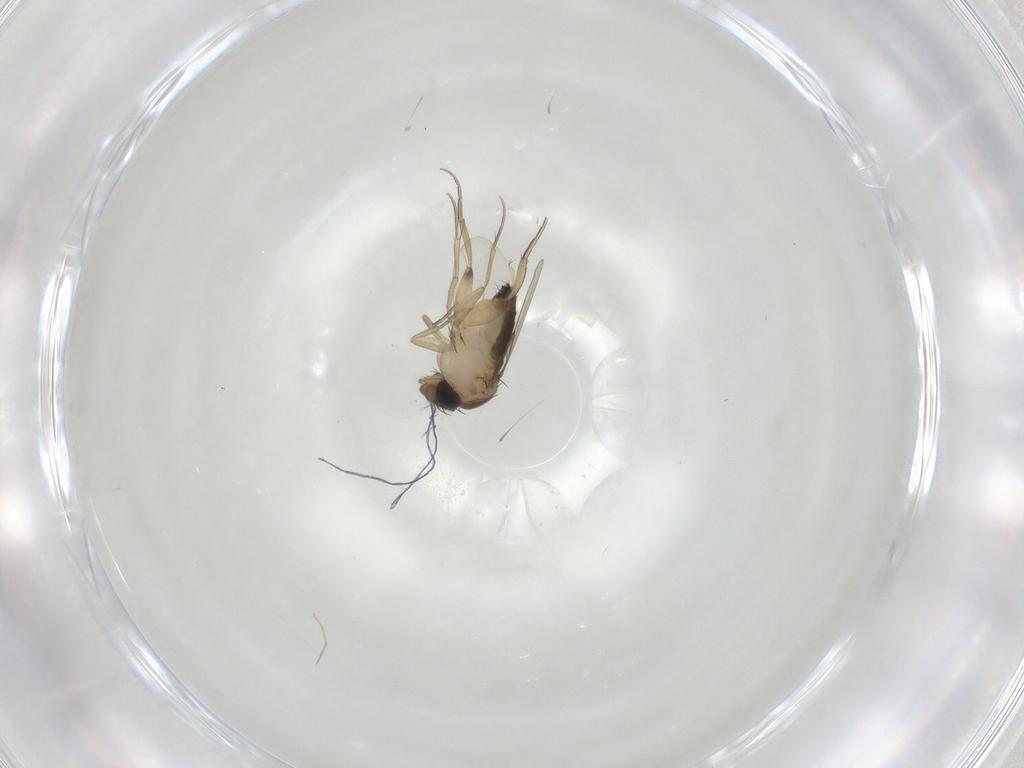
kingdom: Animalia
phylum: Arthropoda
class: Insecta
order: Diptera
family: Phoridae
